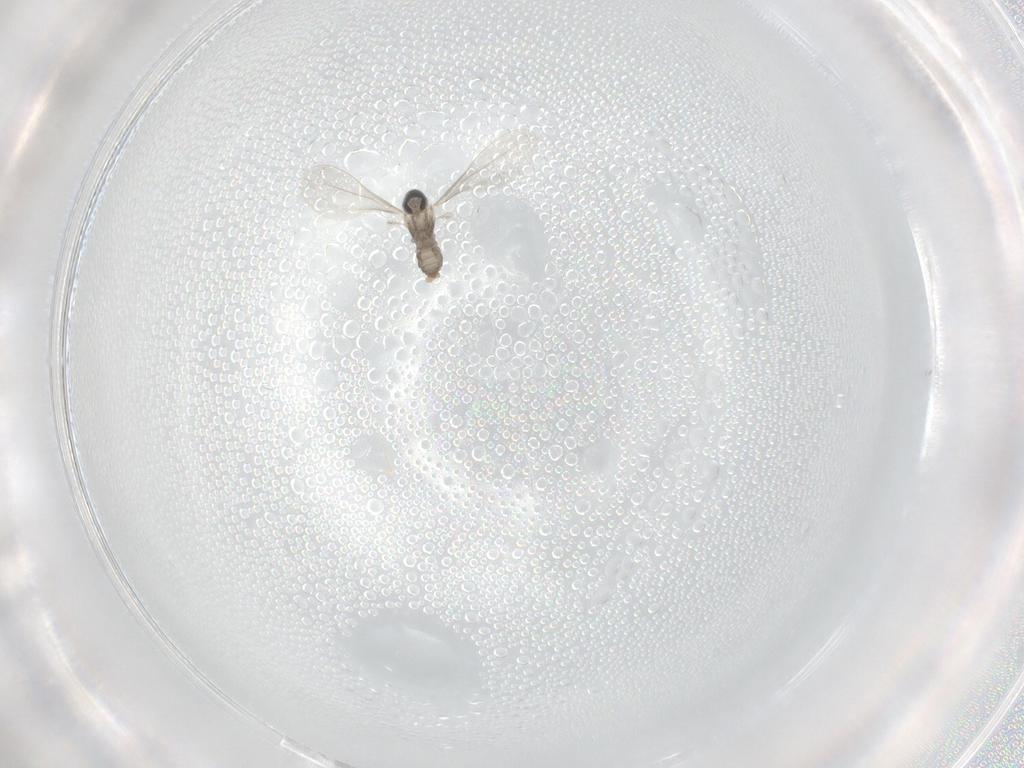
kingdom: Animalia
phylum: Arthropoda
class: Insecta
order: Diptera
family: Cecidomyiidae
